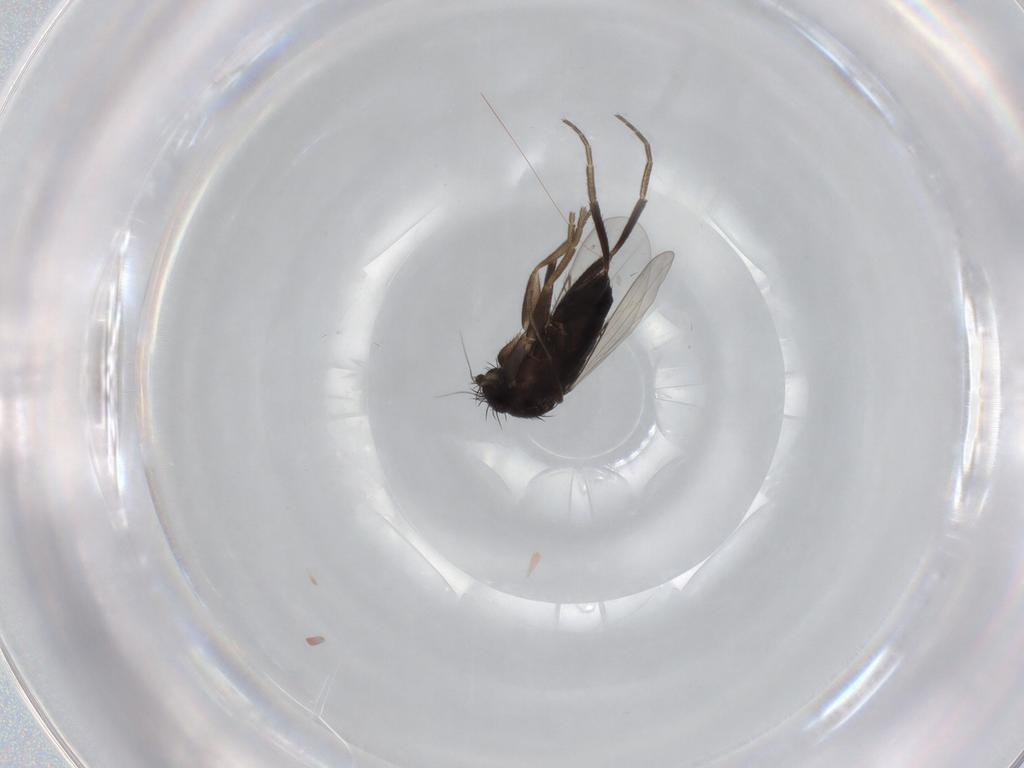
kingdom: Animalia
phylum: Arthropoda
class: Insecta
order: Diptera
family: Phoridae
